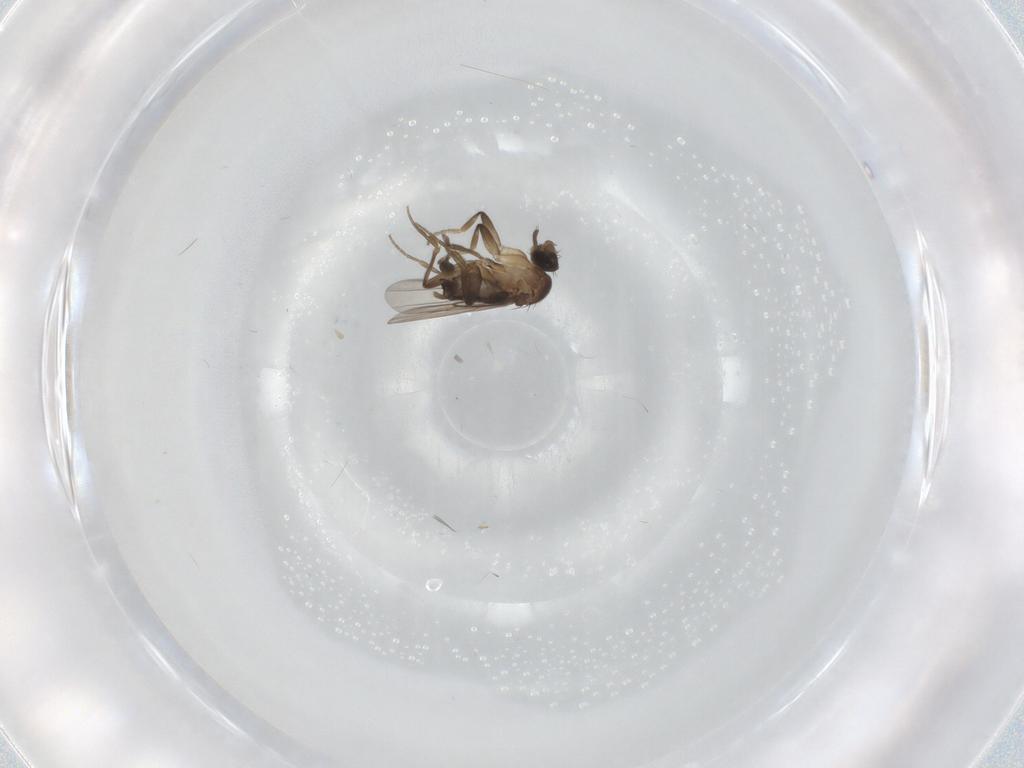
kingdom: Animalia
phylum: Arthropoda
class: Insecta
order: Diptera
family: Phoridae
